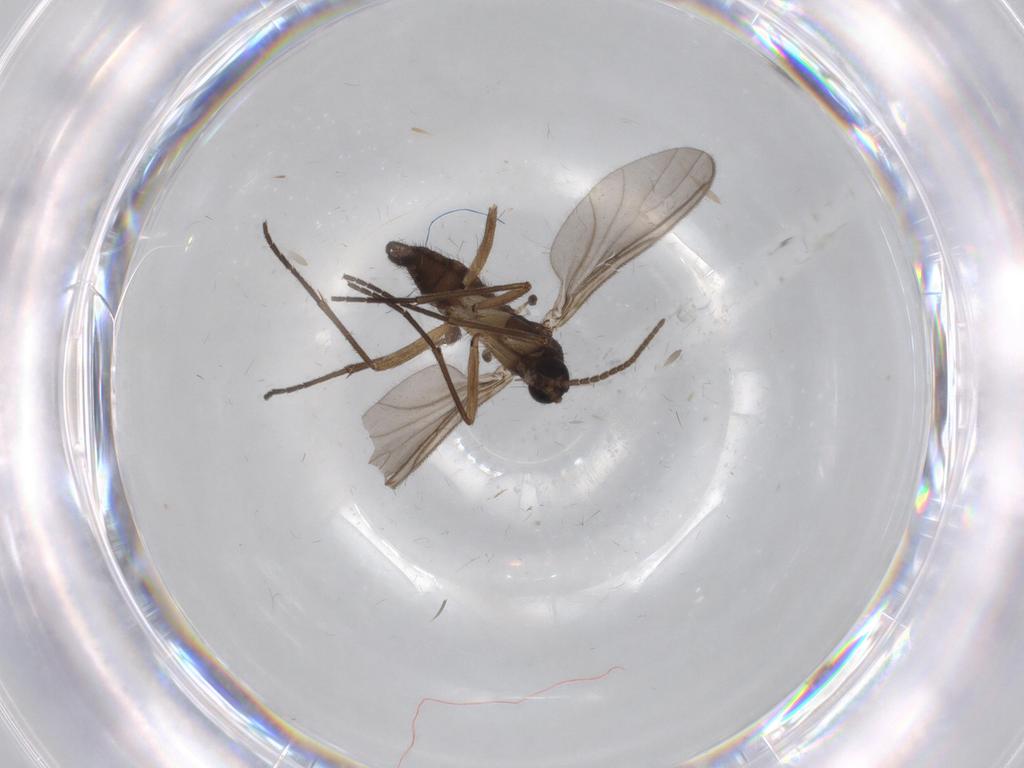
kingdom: Animalia
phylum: Arthropoda
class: Insecta
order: Diptera
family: Sciaridae
